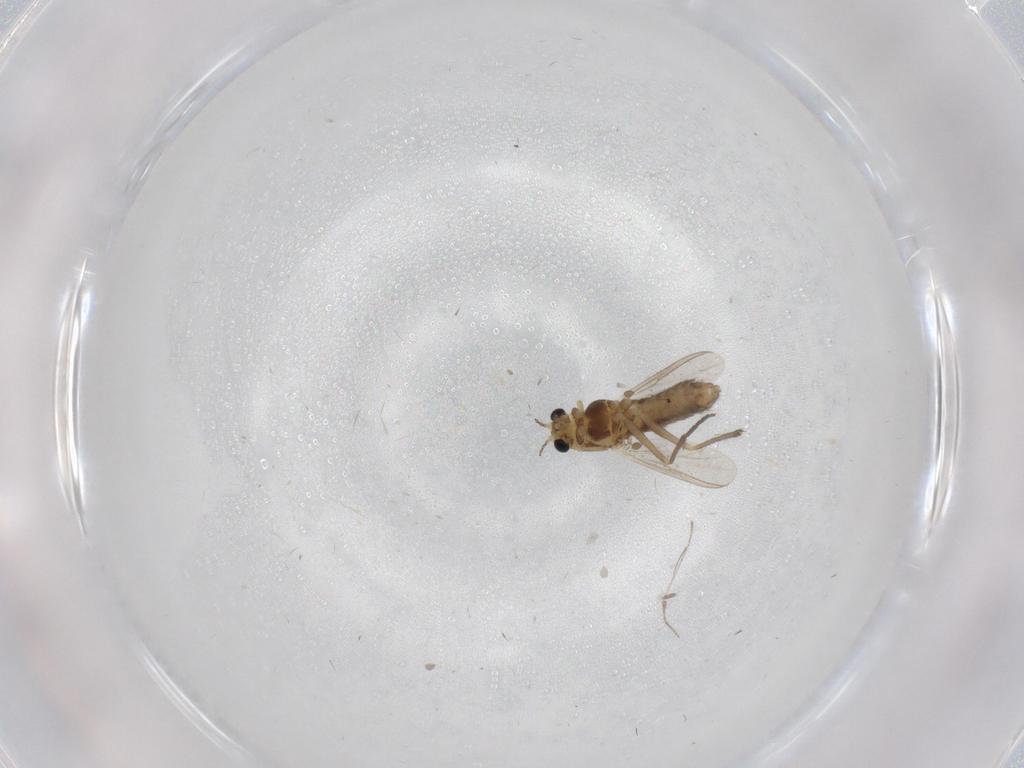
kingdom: Animalia
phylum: Arthropoda
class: Insecta
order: Diptera
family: Chironomidae
